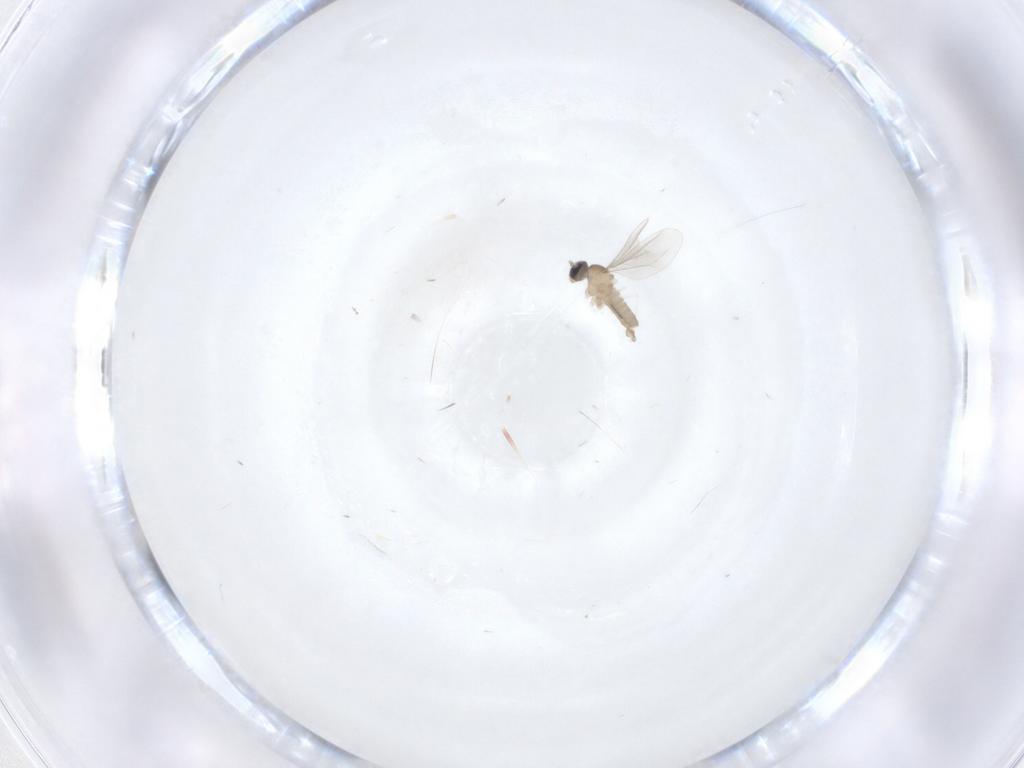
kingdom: Animalia
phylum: Arthropoda
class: Insecta
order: Diptera
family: Cecidomyiidae
